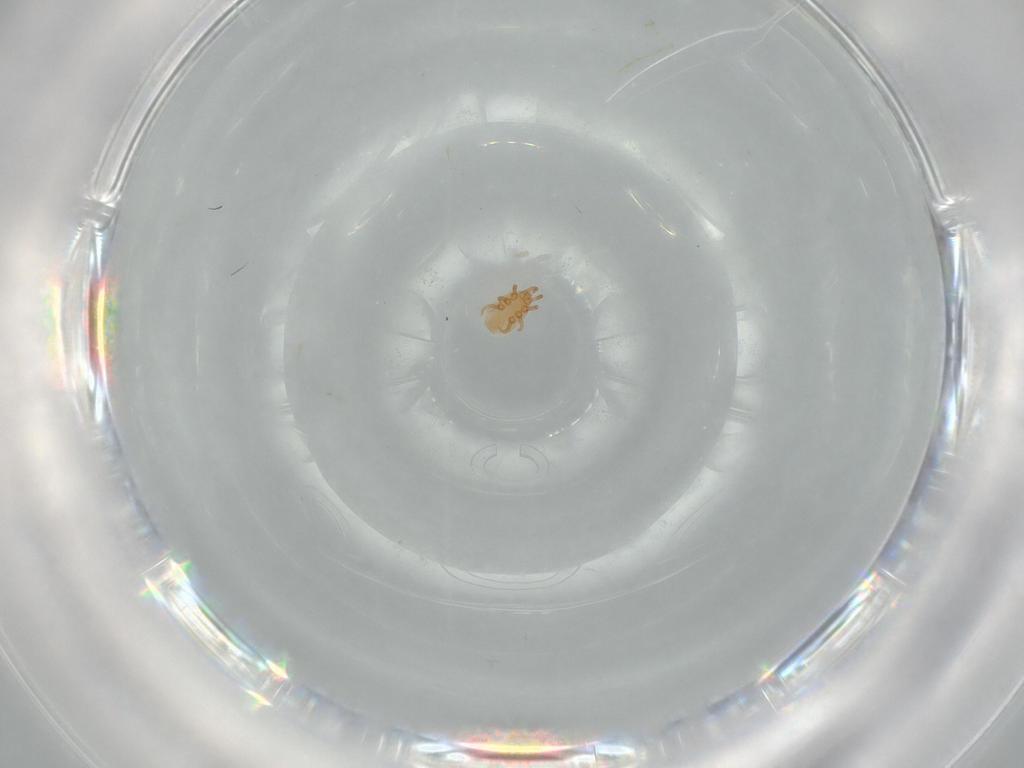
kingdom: Animalia
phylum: Arthropoda
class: Arachnida
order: Mesostigmata
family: Dinychidae
